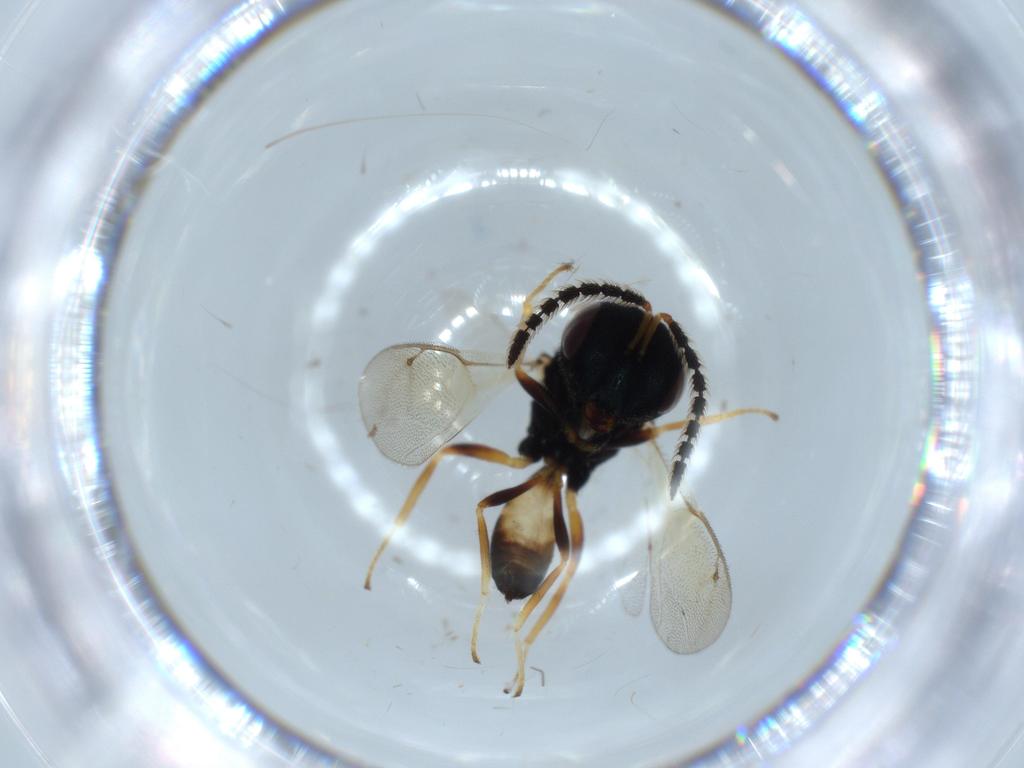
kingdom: Animalia
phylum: Arthropoda
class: Insecta
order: Hymenoptera
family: Pteromalidae
